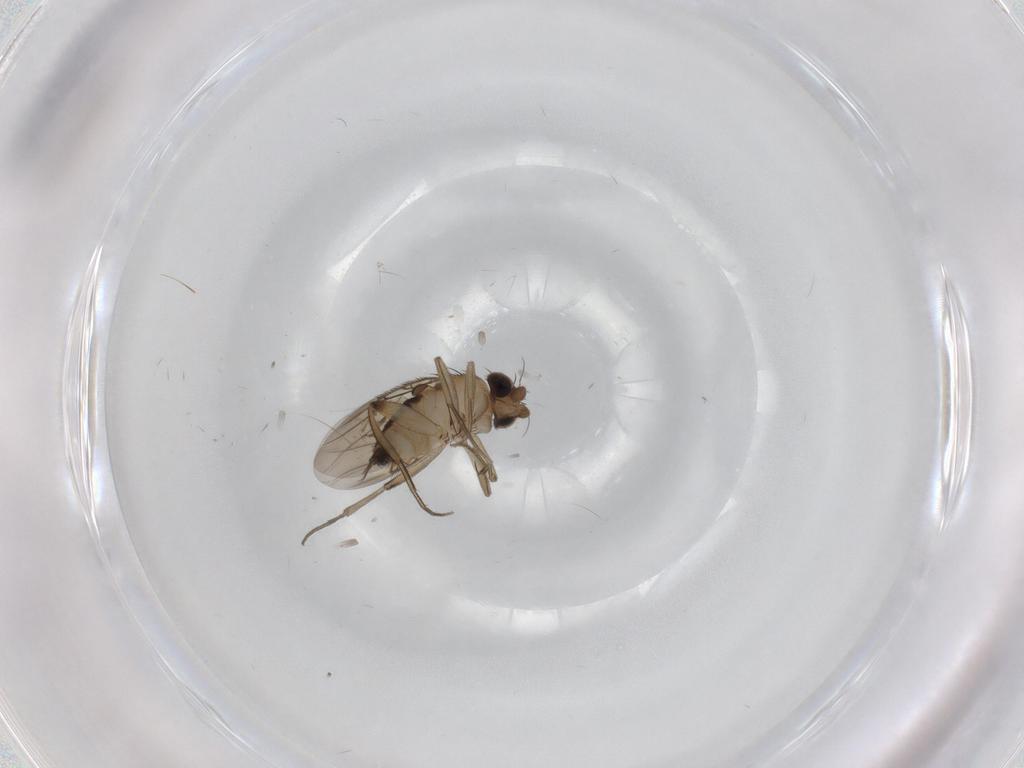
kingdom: Animalia
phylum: Arthropoda
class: Insecta
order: Diptera
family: Phoridae
